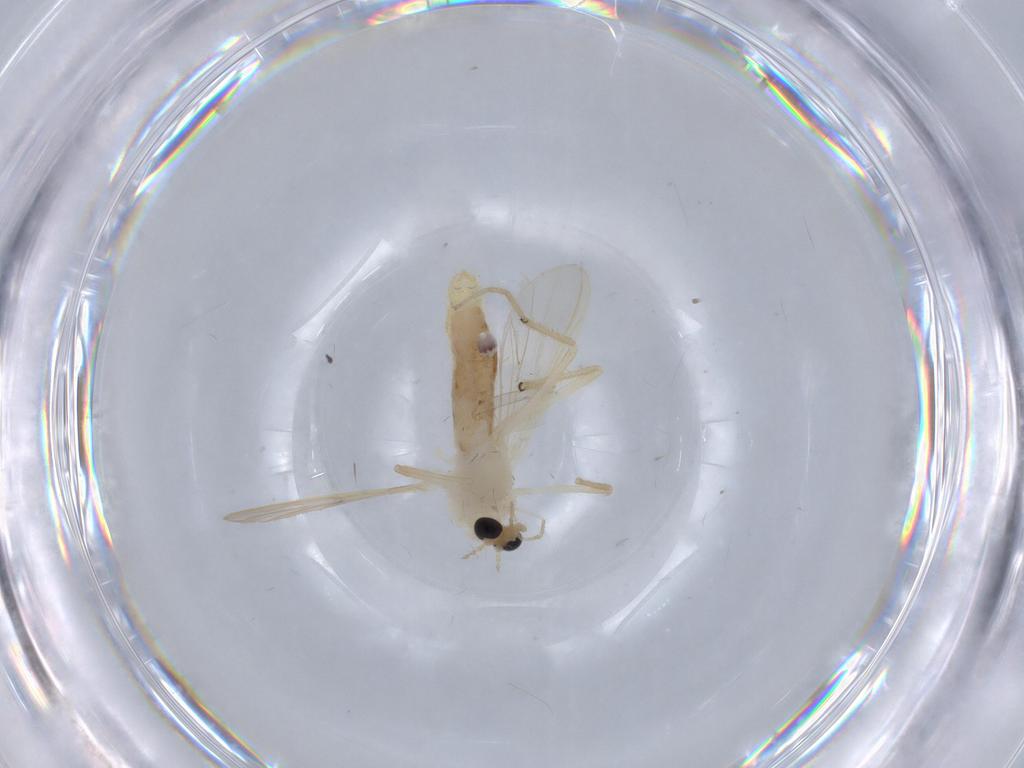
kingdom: Animalia
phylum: Arthropoda
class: Insecta
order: Diptera
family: Chironomidae
